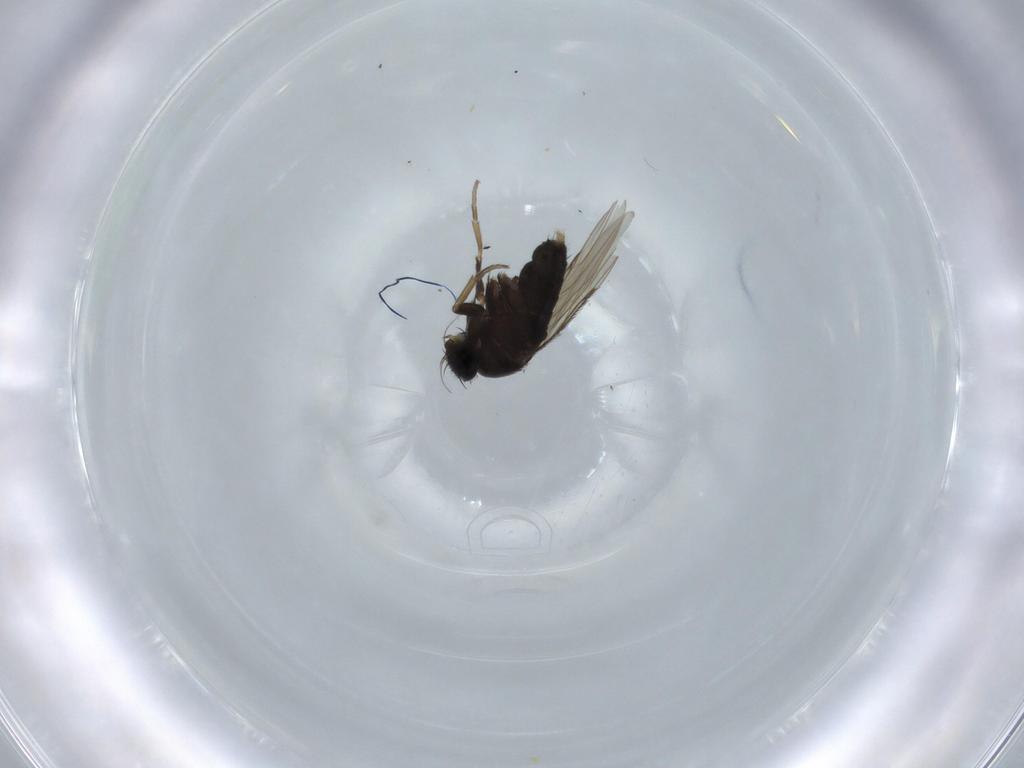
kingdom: Animalia
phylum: Arthropoda
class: Insecta
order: Diptera
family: Phoridae
